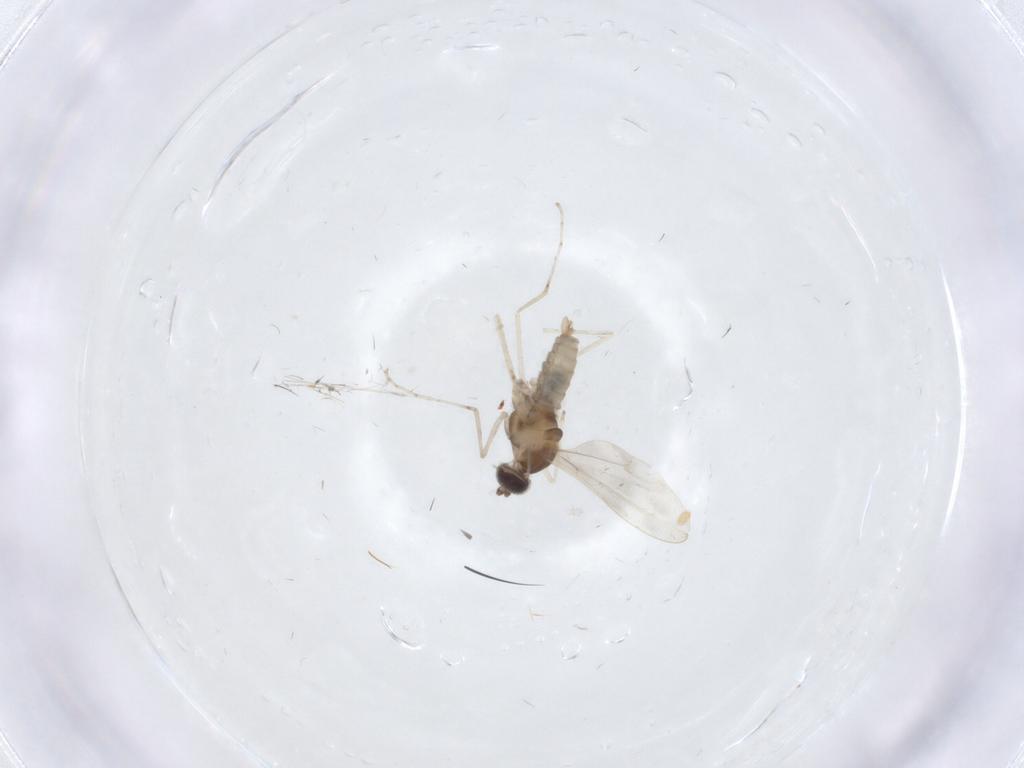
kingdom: Animalia
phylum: Arthropoda
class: Insecta
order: Diptera
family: Cecidomyiidae
